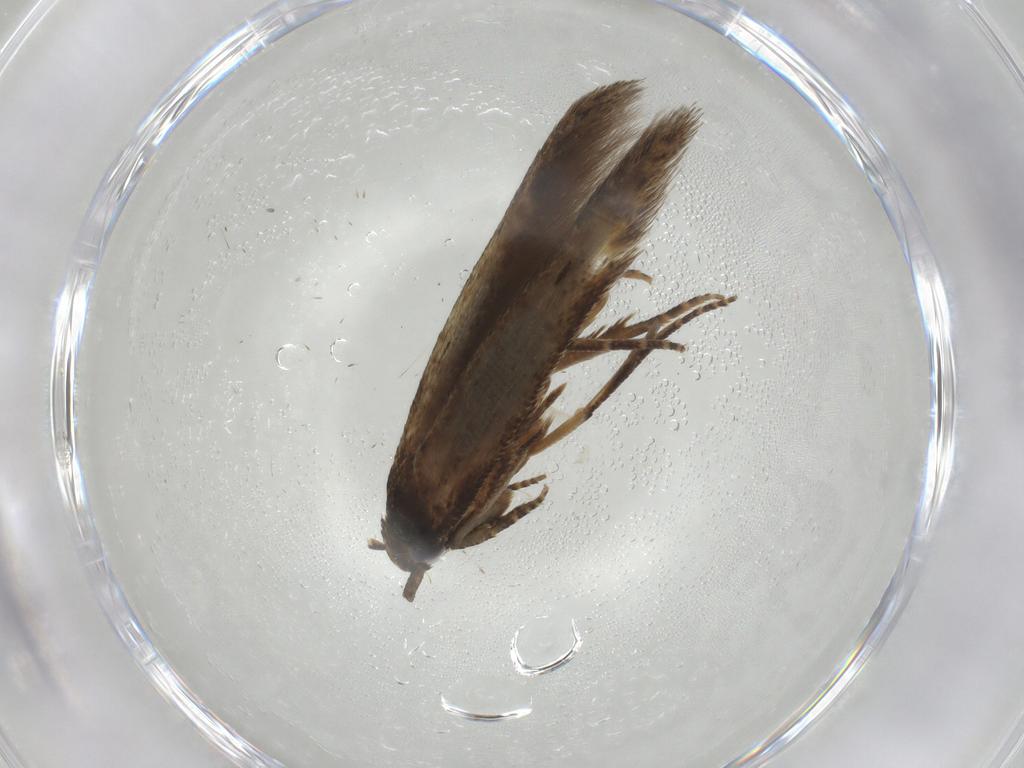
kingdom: Animalia
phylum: Arthropoda
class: Insecta
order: Lepidoptera
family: Cosmopterigidae
